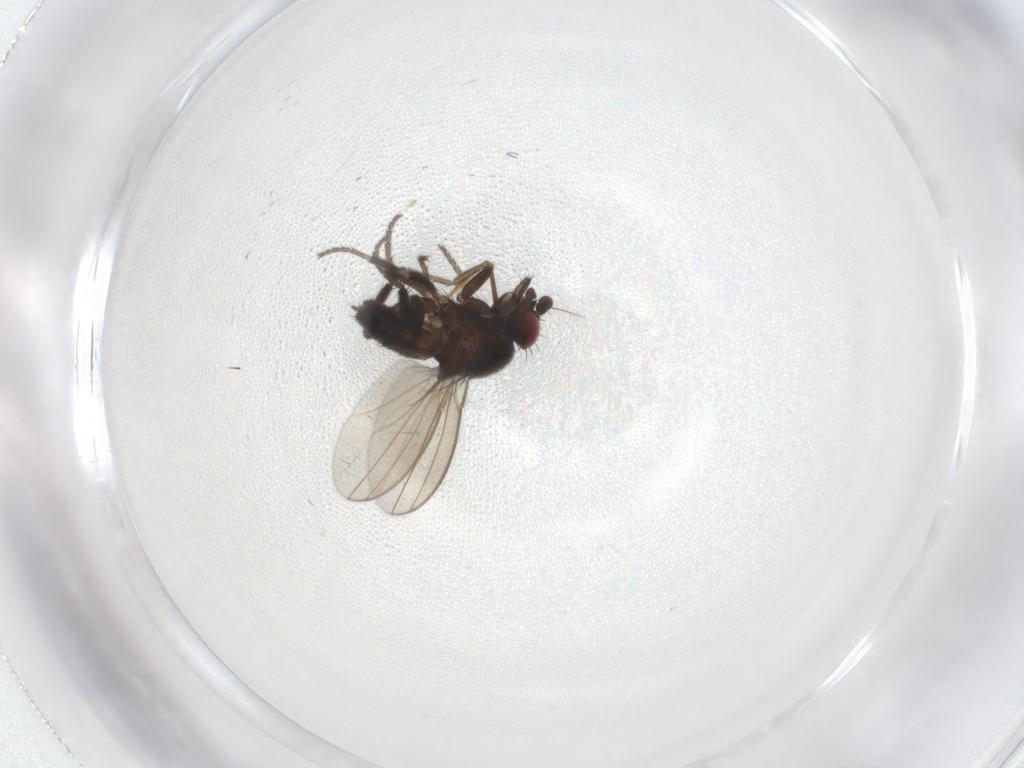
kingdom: Animalia
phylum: Arthropoda
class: Insecta
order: Diptera
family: Milichiidae
